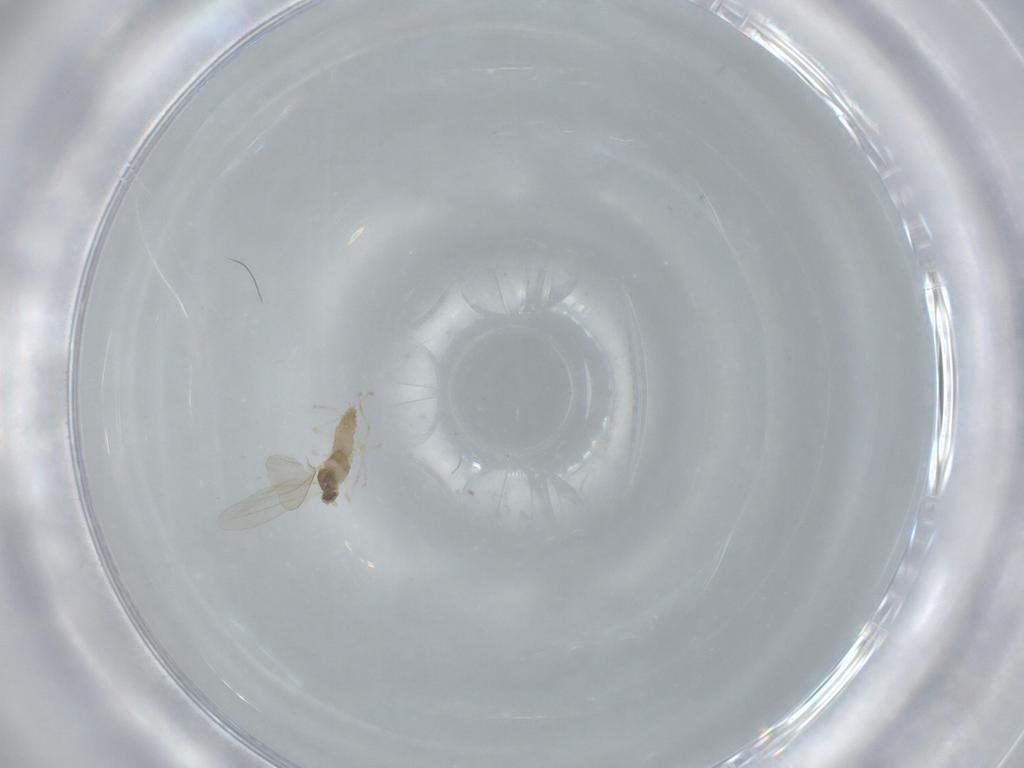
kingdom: Animalia
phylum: Arthropoda
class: Insecta
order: Diptera
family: Cecidomyiidae
